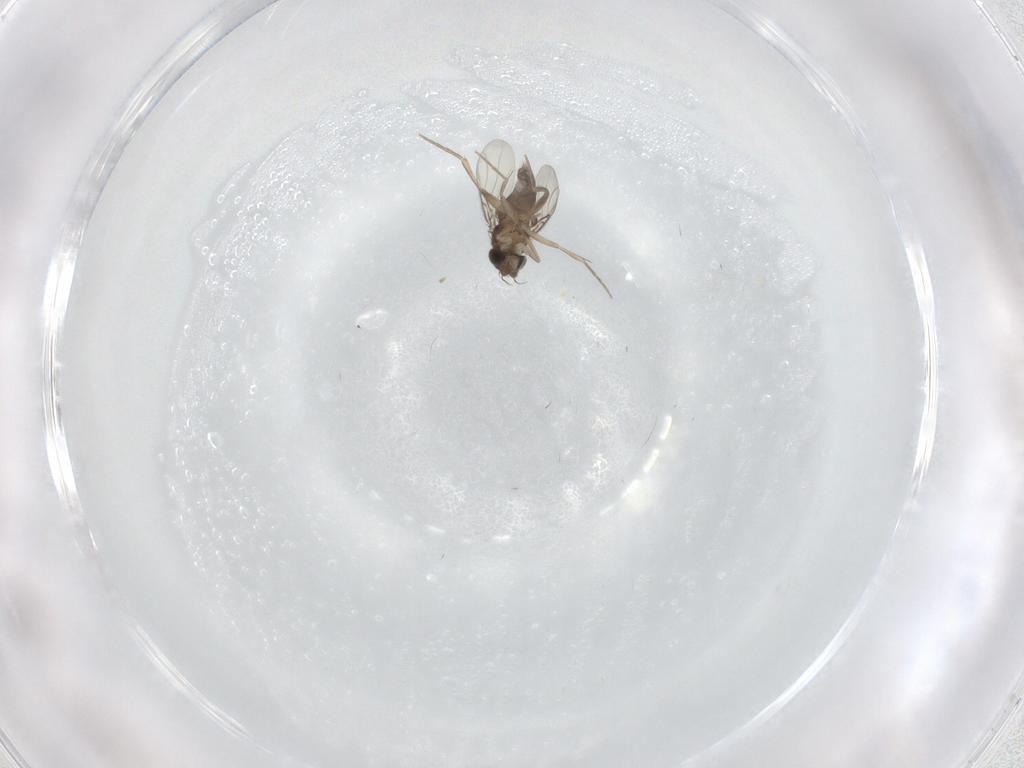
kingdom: Animalia
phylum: Arthropoda
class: Insecta
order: Diptera
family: Phoridae
